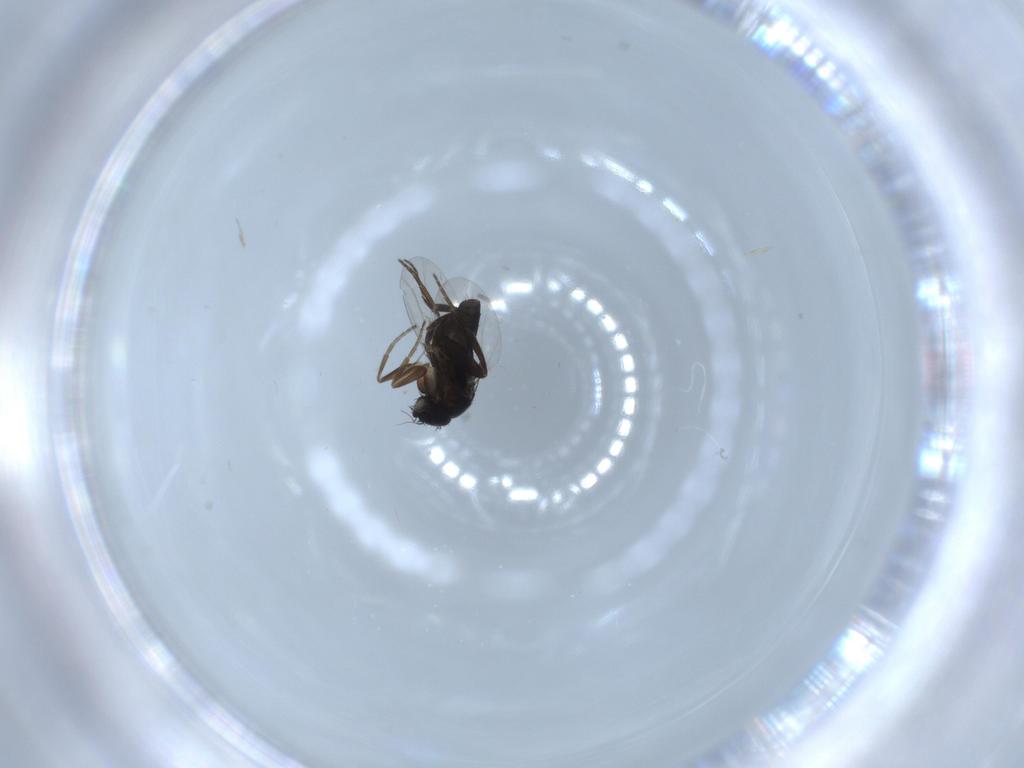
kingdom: Animalia
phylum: Arthropoda
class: Insecta
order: Diptera
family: Phoridae
